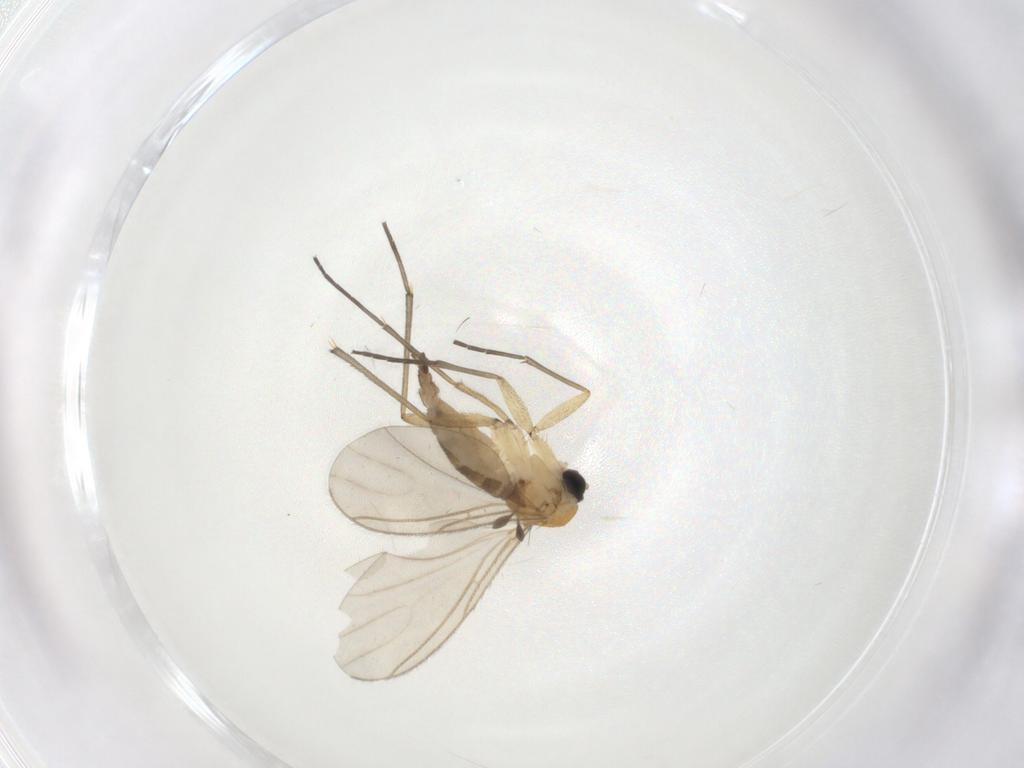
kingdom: Animalia
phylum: Arthropoda
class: Insecta
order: Diptera
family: Sciaridae
